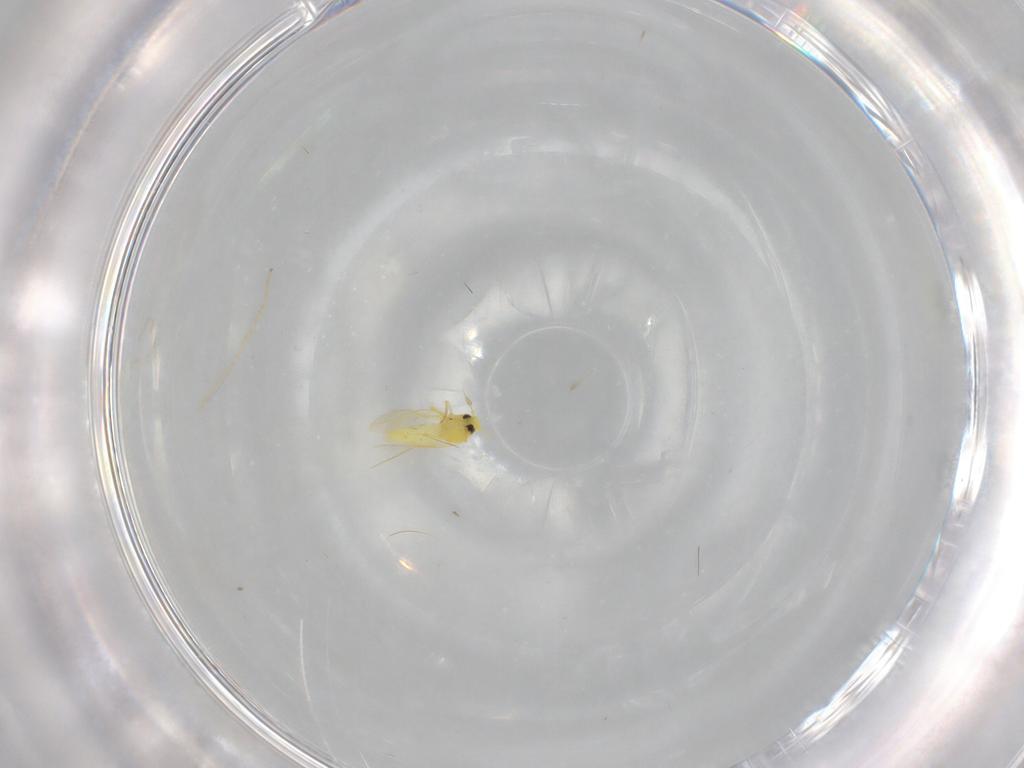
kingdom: Animalia
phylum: Arthropoda
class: Insecta
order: Hemiptera
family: Aleyrodidae
